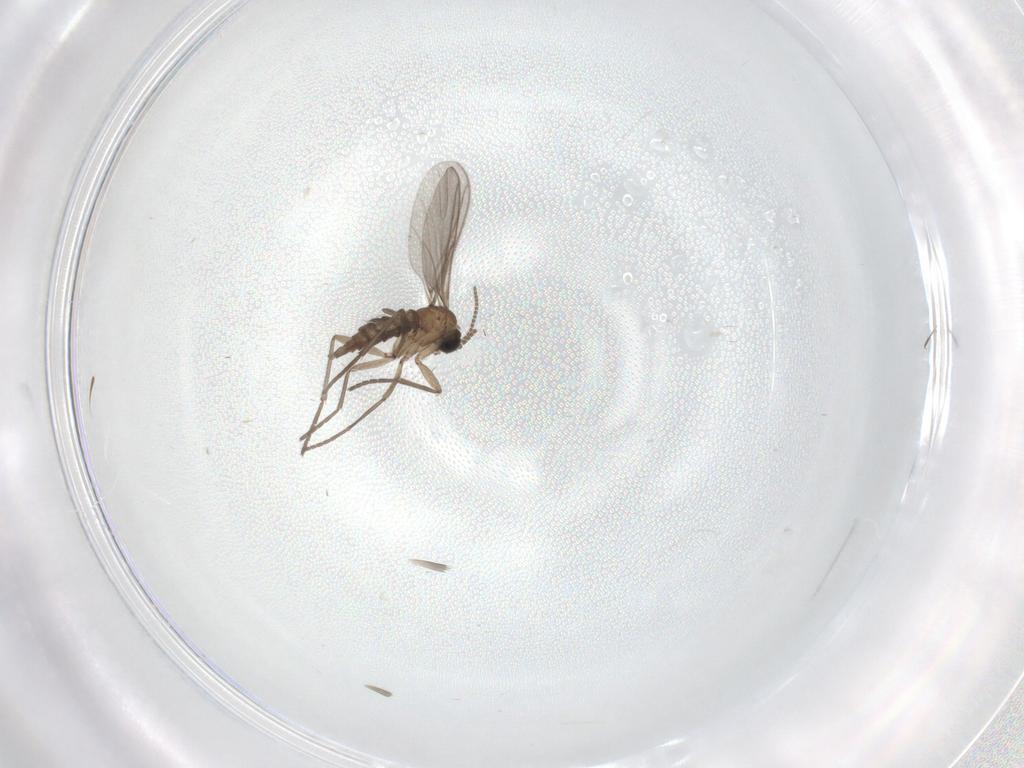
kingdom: Animalia
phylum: Arthropoda
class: Insecta
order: Diptera
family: Sciaridae
